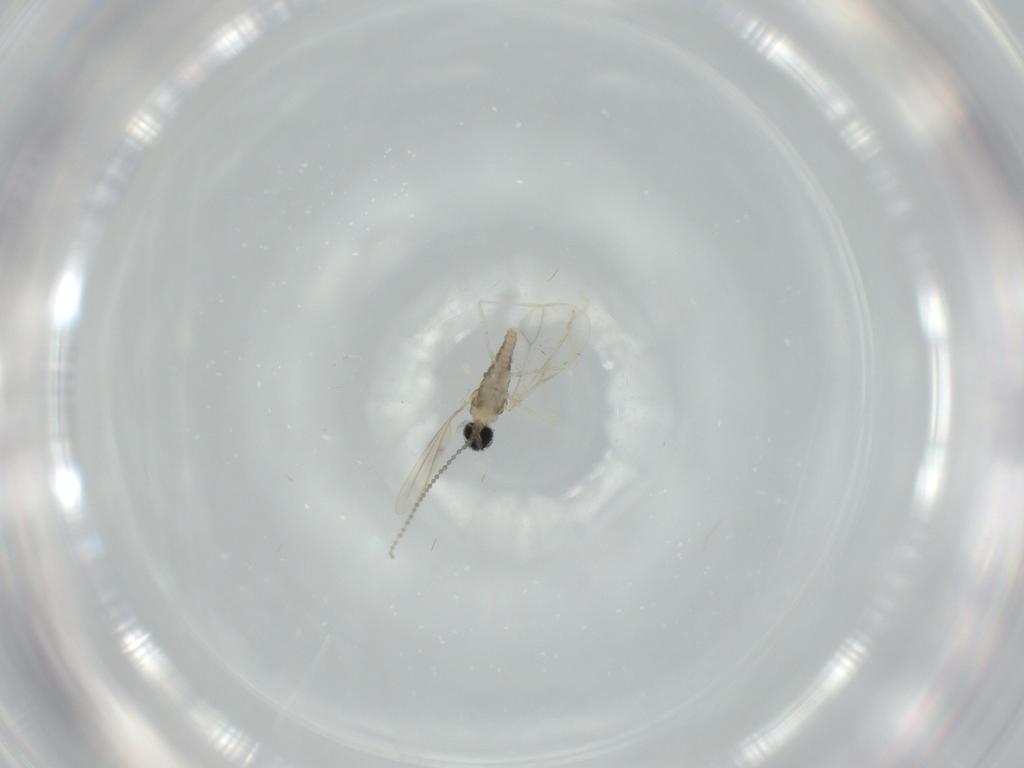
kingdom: Animalia
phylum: Arthropoda
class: Insecta
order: Diptera
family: Cecidomyiidae
